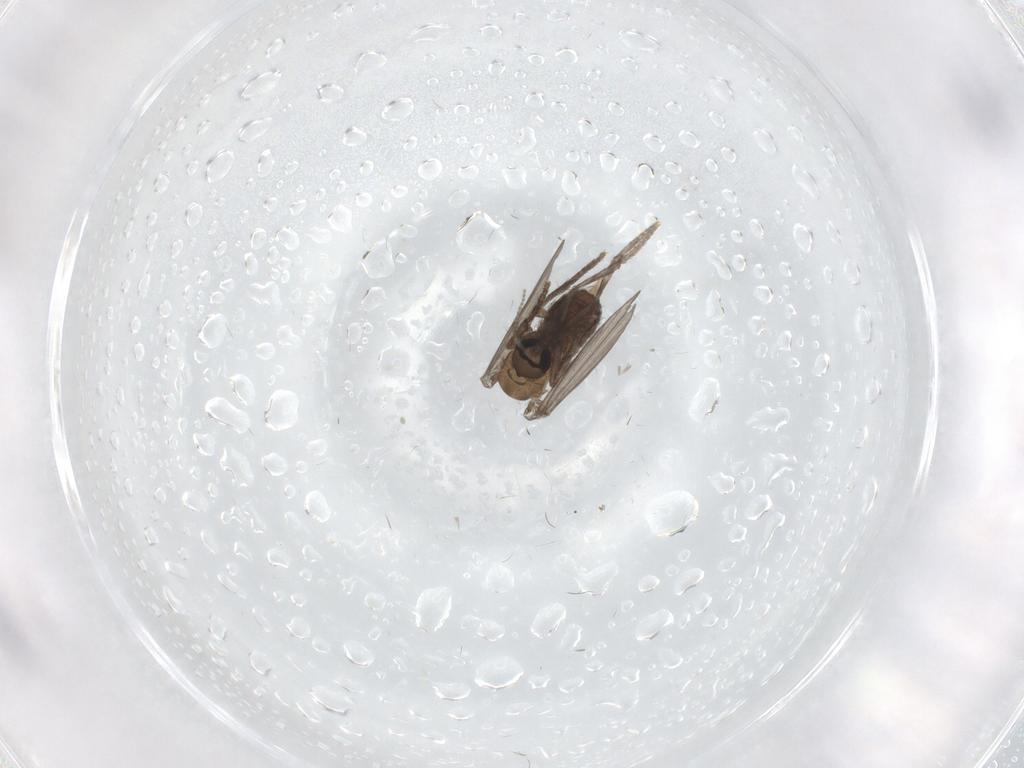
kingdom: Animalia
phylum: Arthropoda
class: Insecta
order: Diptera
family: Psychodidae
